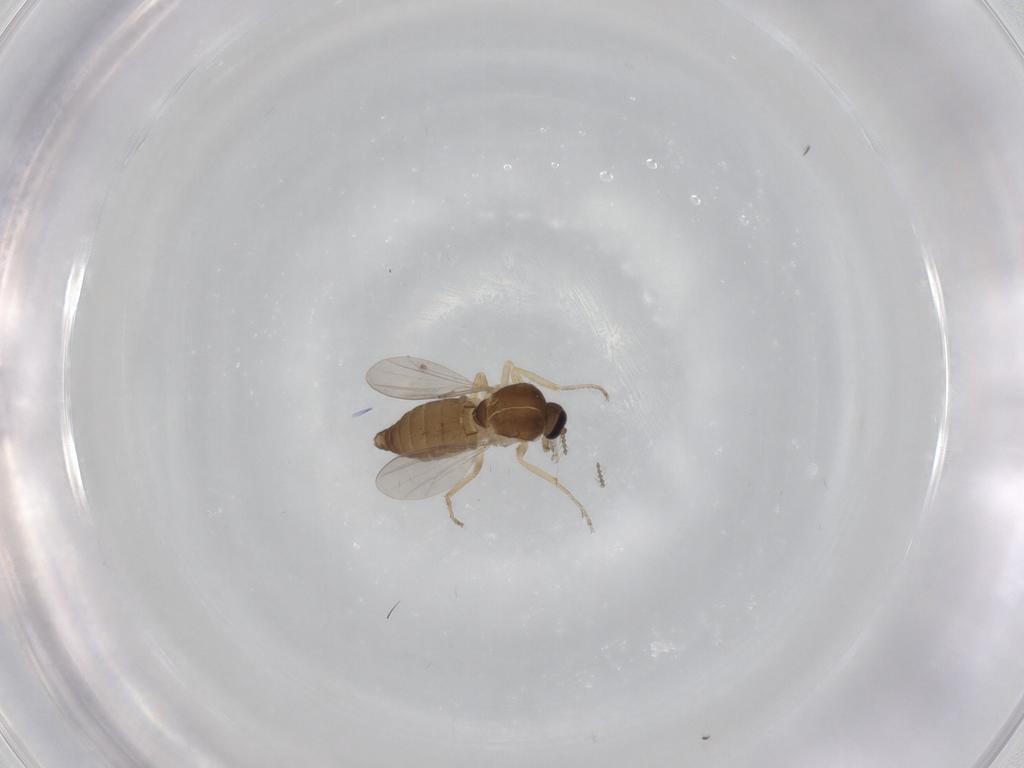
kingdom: Animalia
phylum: Arthropoda
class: Insecta
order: Diptera
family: Ceratopogonidae
